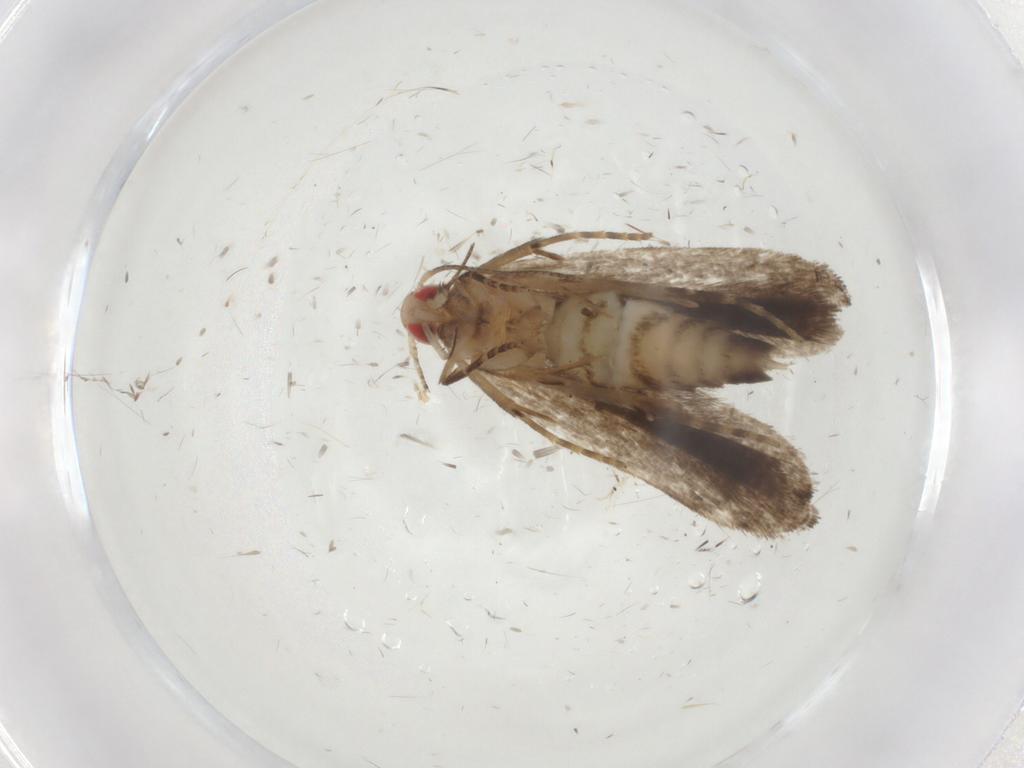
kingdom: Animalia
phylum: Arthropoda
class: Insecta
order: Lepidoptera
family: Gelechiidae
